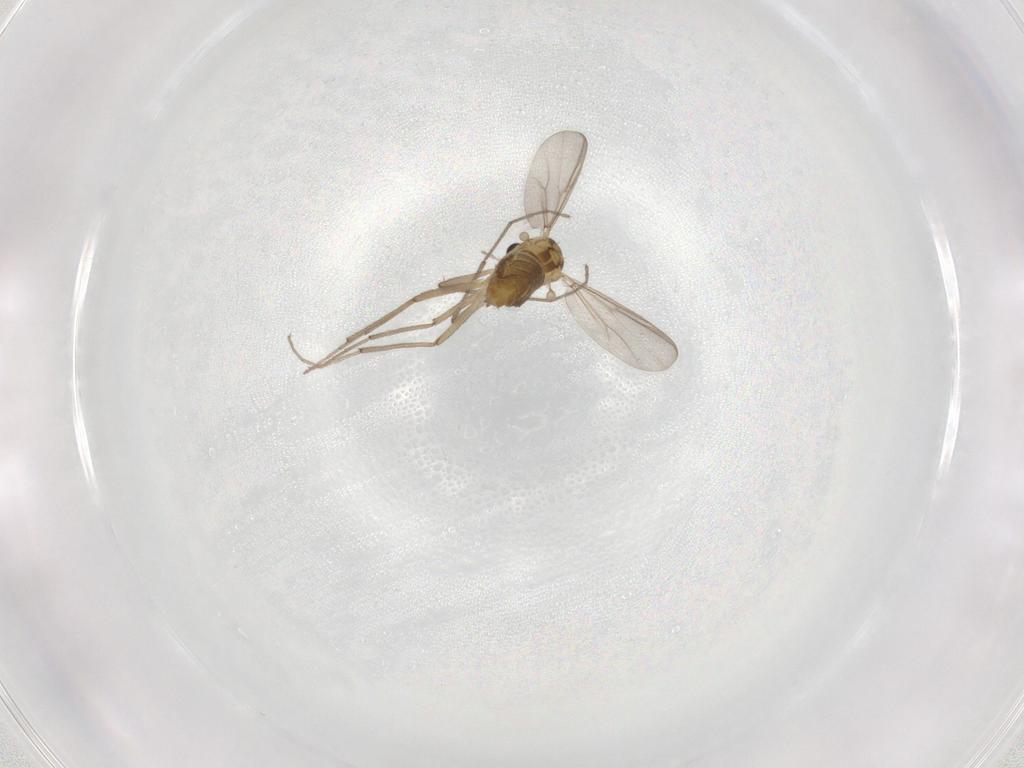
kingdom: Animalia
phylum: Arthropoda
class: Insecta
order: Diptera
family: Chironomidae
